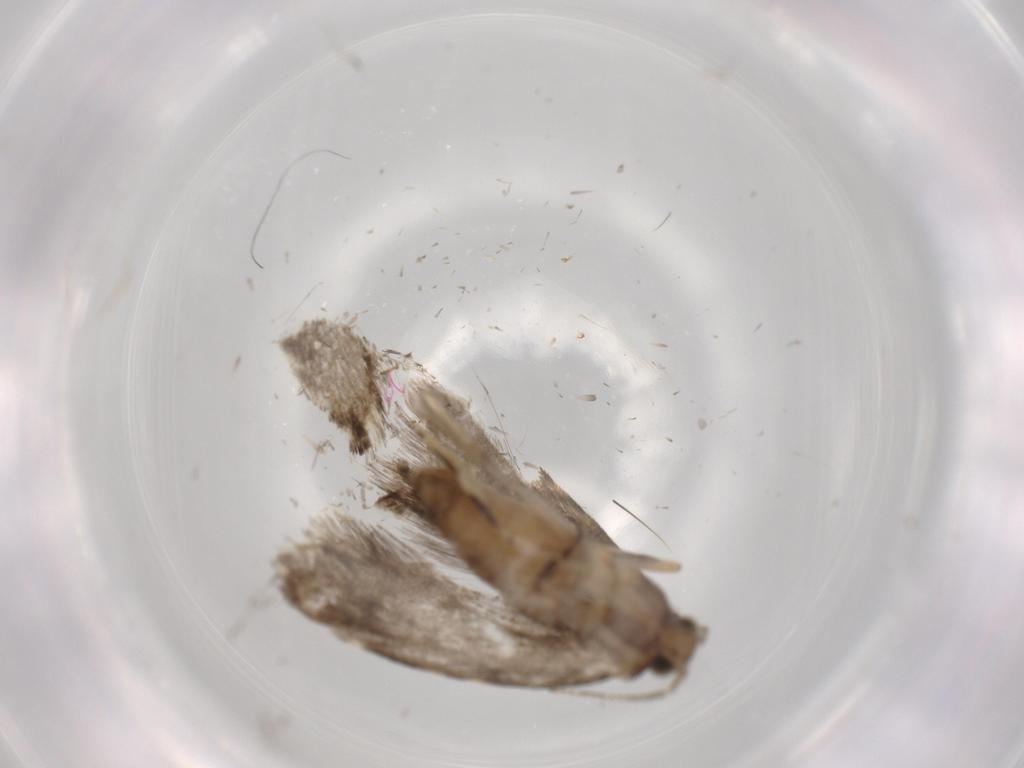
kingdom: Animalia
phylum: Arthropoda
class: Insecta
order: Lepidoptera
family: Tineidae
